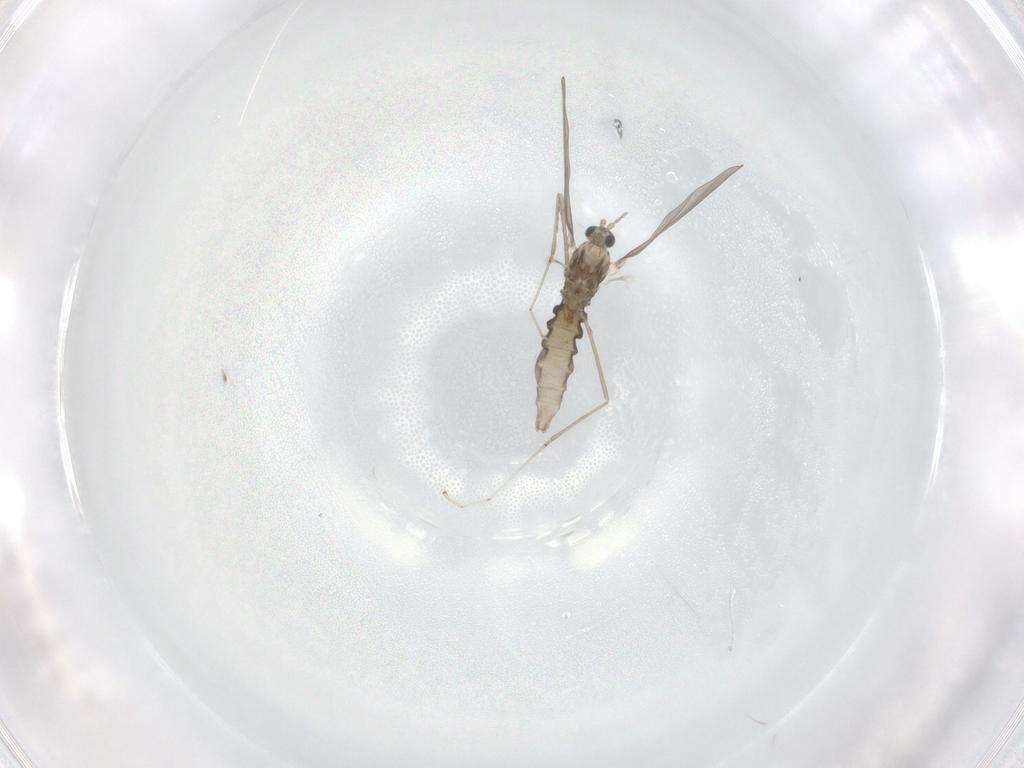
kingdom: Animalia
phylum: Arthropoda
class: Insecta
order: Diptera
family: Cecidomyiidae
